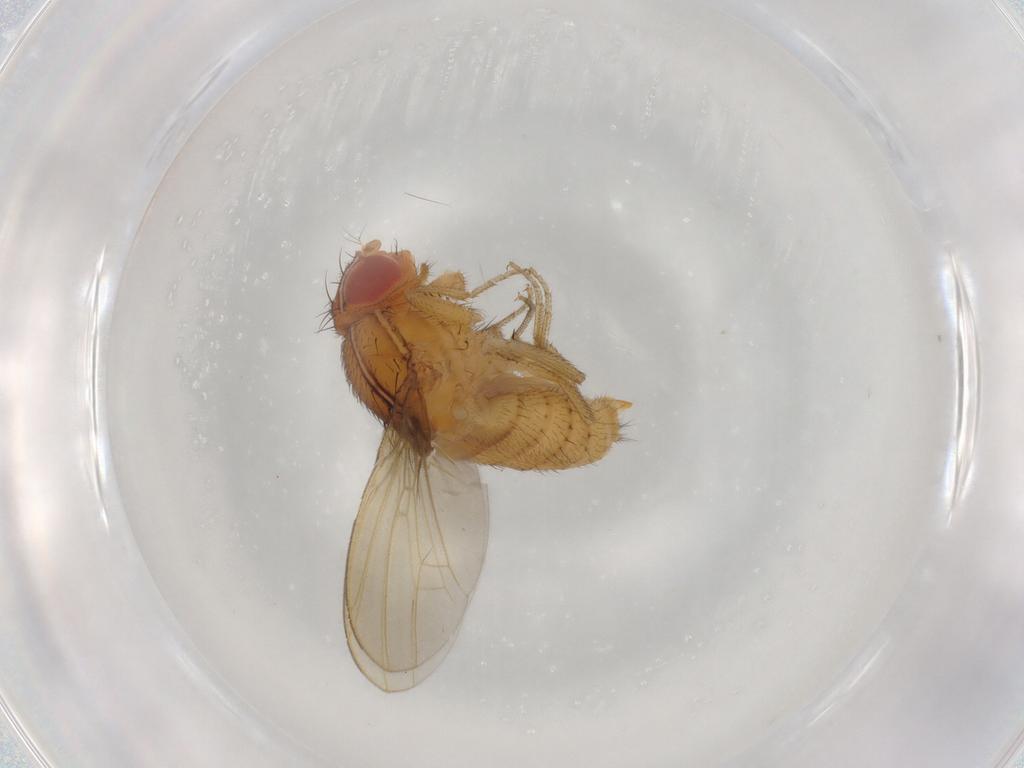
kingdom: Animalia
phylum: Arthropoda
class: Insecta
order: Diptera
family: Drosophilidae
